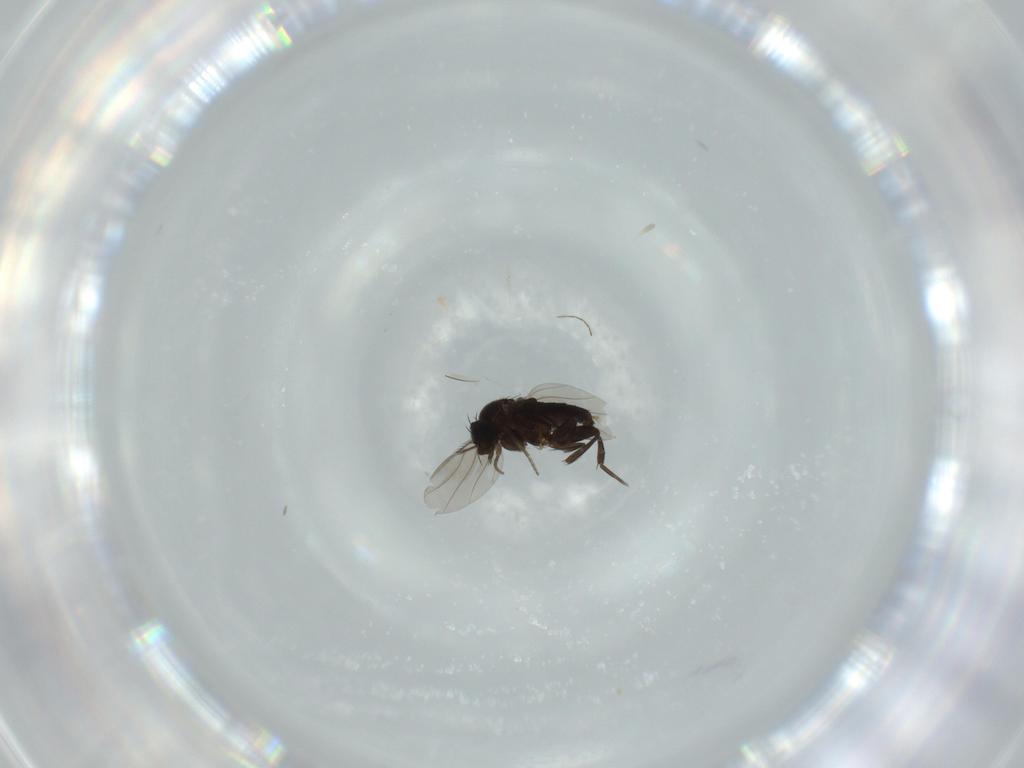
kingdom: Animalia
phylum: Arthropoda
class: Insecta
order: Diptera
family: Phoridae
